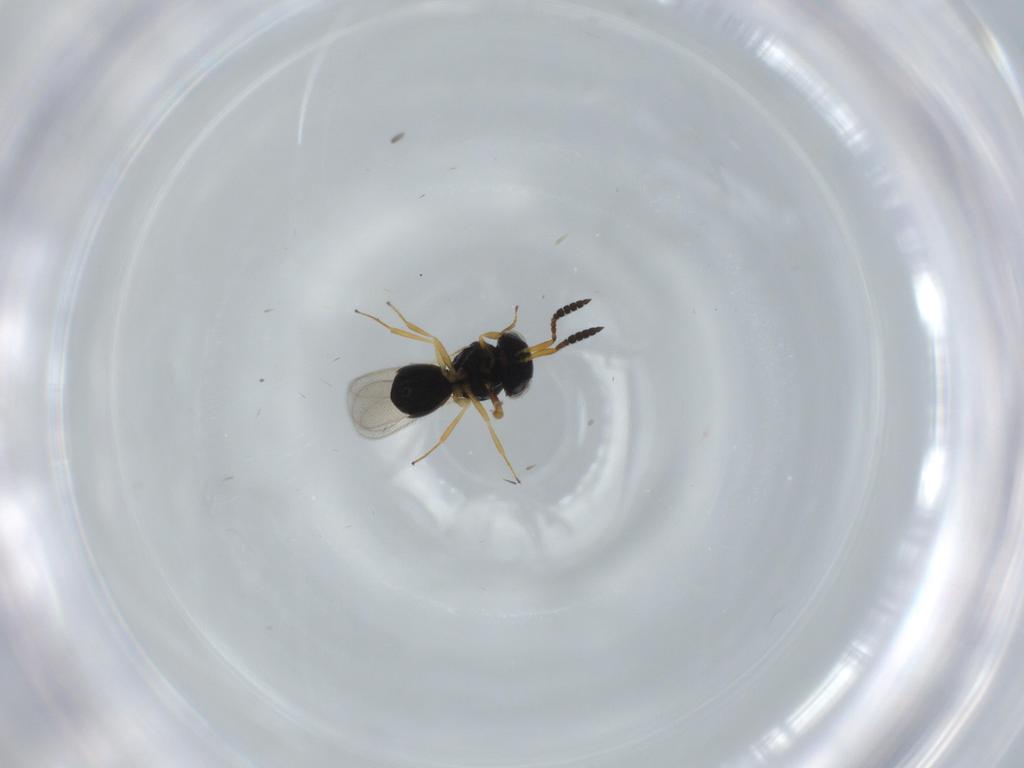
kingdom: Animalia
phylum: Arthropoda
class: Insecta
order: Hymenoptera
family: Scelionidae
